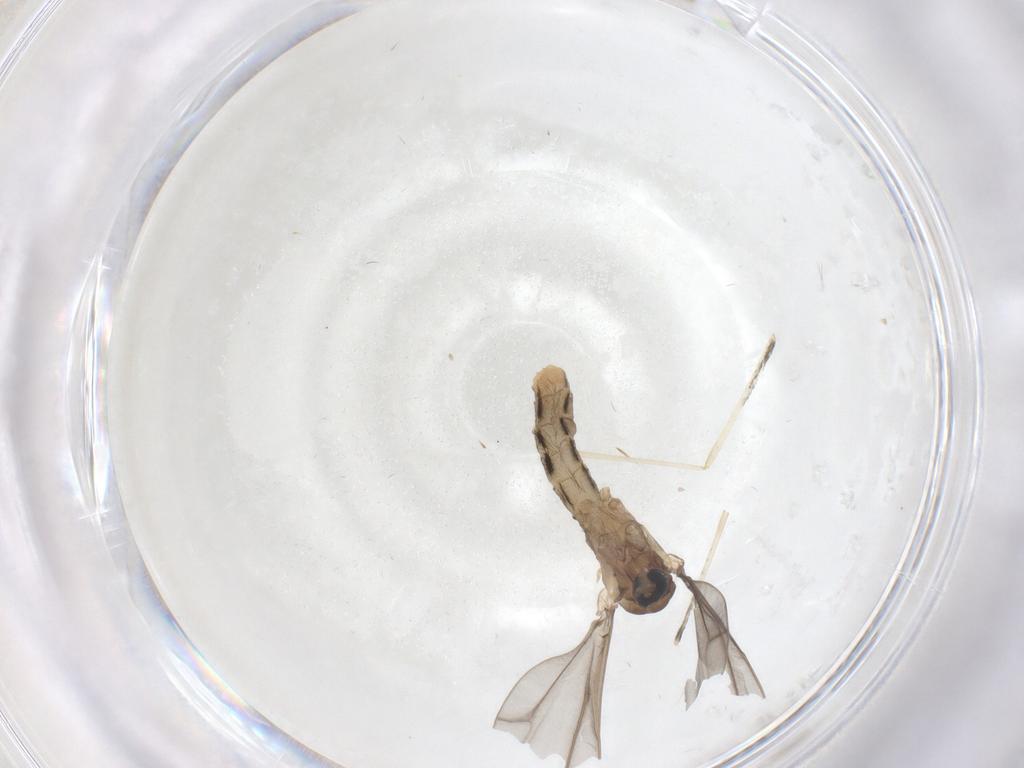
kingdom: Animalia
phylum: Arthropoda
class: Insecta
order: Diptera
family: Cecidomyiidae
